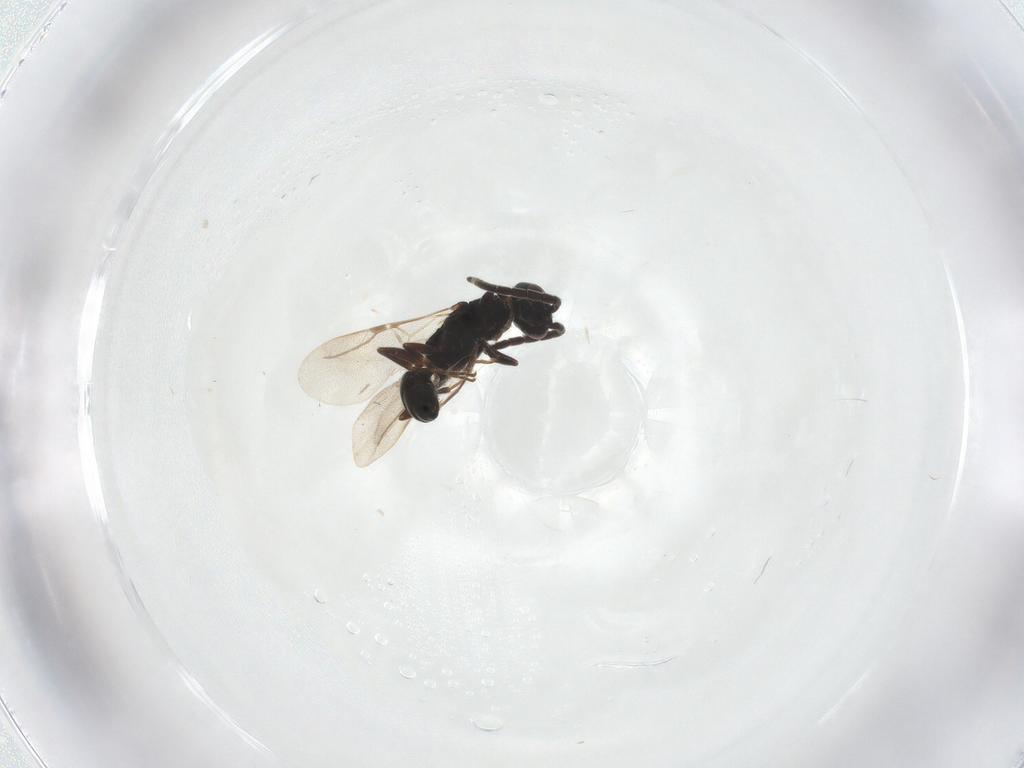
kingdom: Animalia
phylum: Arthropoda
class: Insecta
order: Hymenoptera
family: Bethylidae
